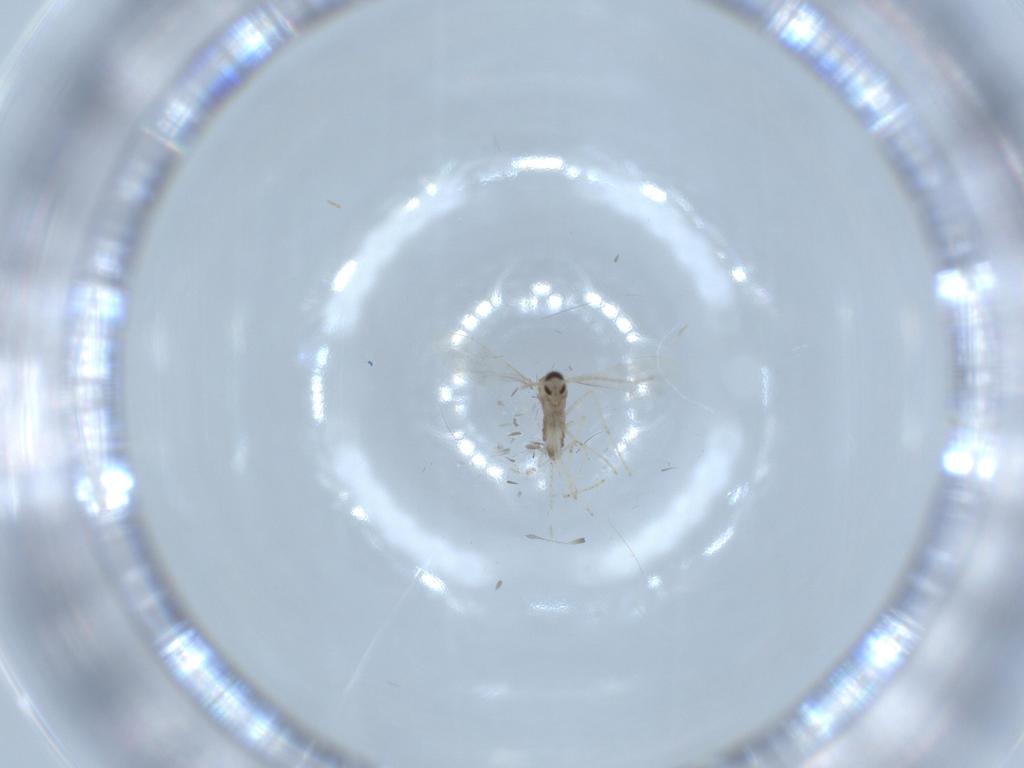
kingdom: Animalia
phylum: Arthropoda
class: Insecta
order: Diptera
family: Cecidomyiidae
